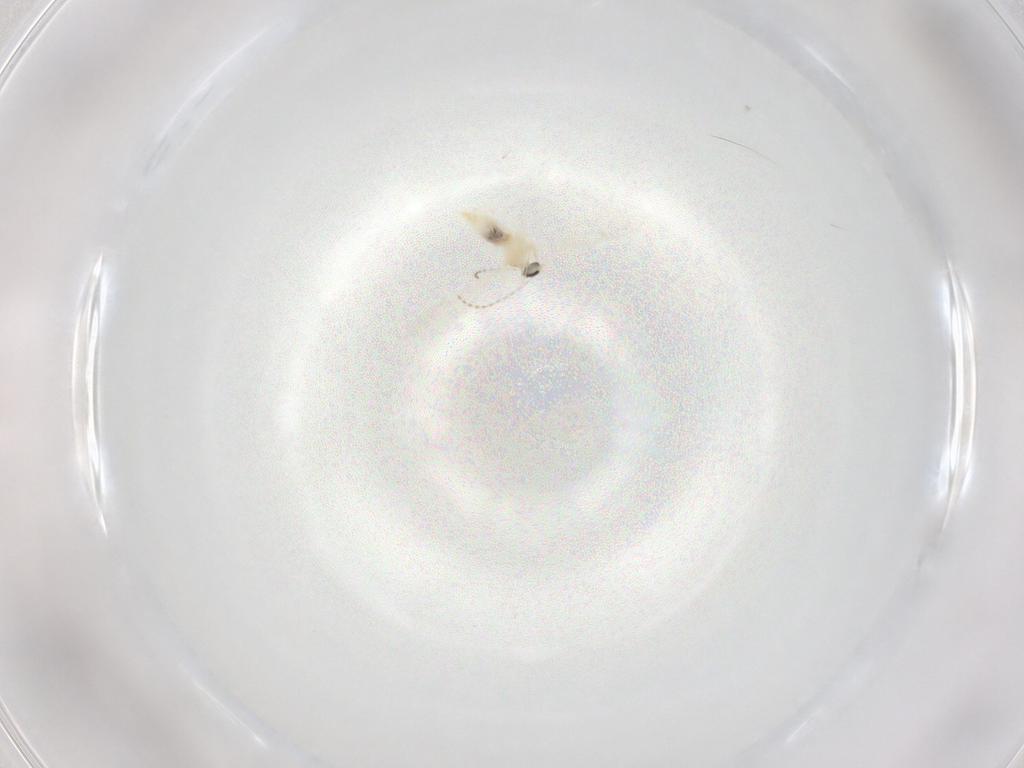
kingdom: Animalia
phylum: Arthropoda
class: Insecta
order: Diptera
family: Cecidomyiidae
